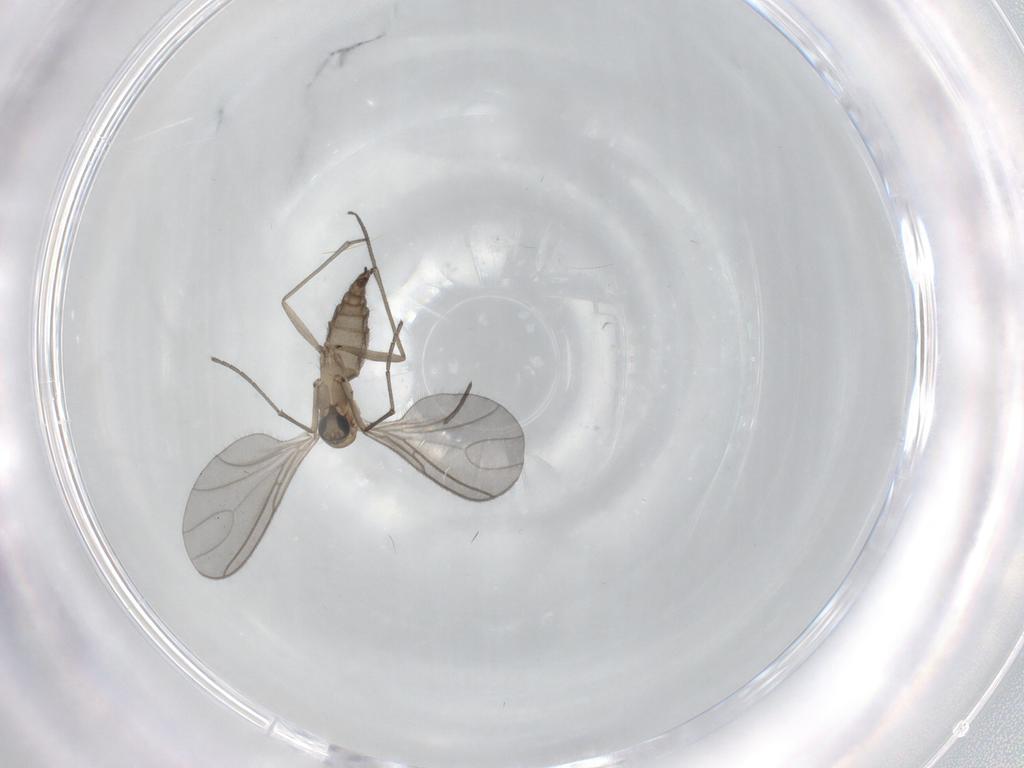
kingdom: Animalia
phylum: Arthropoda
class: Insecta
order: Diptera
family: Sciaridae
